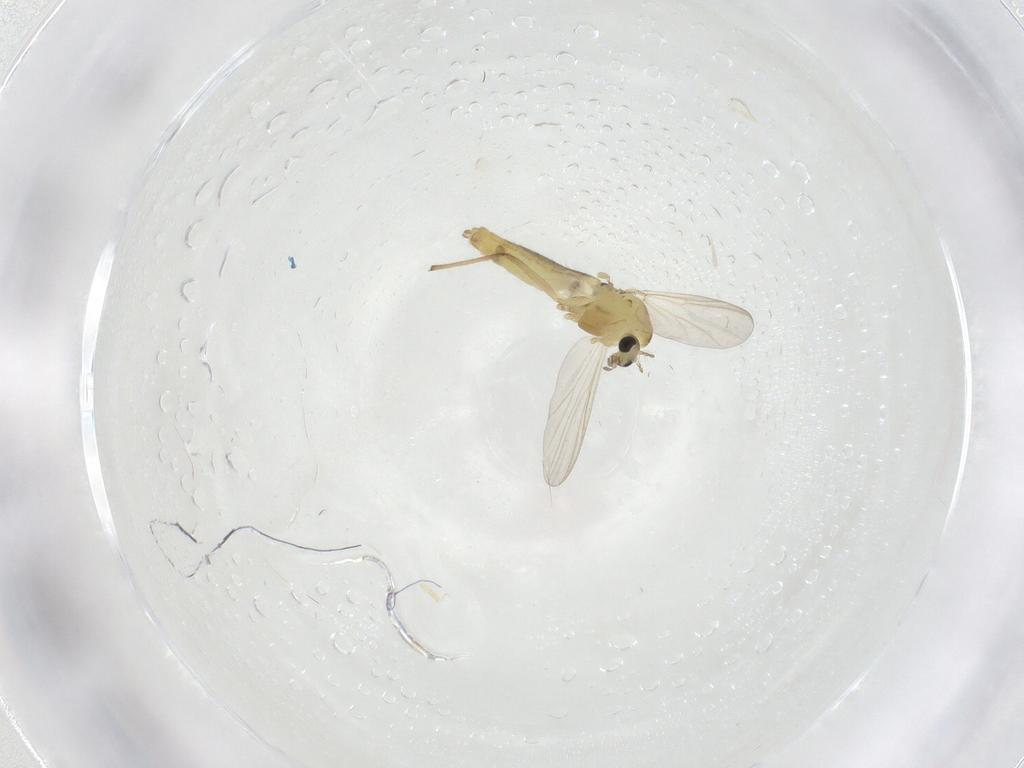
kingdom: Animalia
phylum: Arthropoda
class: Insecta
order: Diptera
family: Chironomidae
